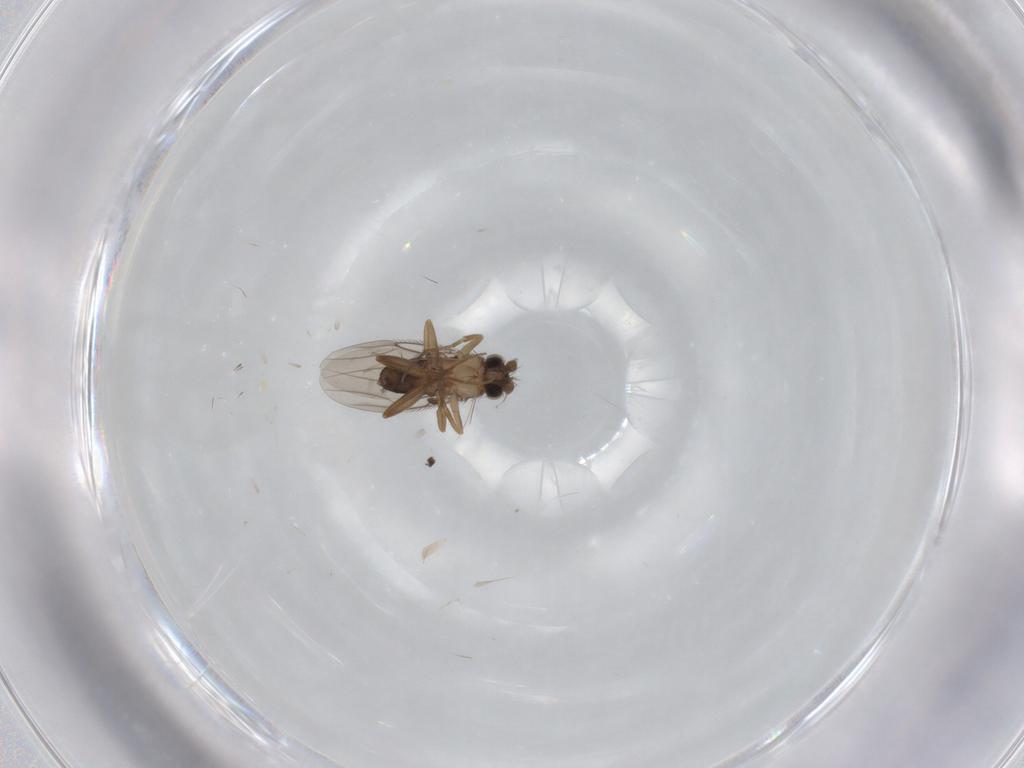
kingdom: Animalia
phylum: Arthropoda
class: Insecta
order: Diptera
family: Phoridae
